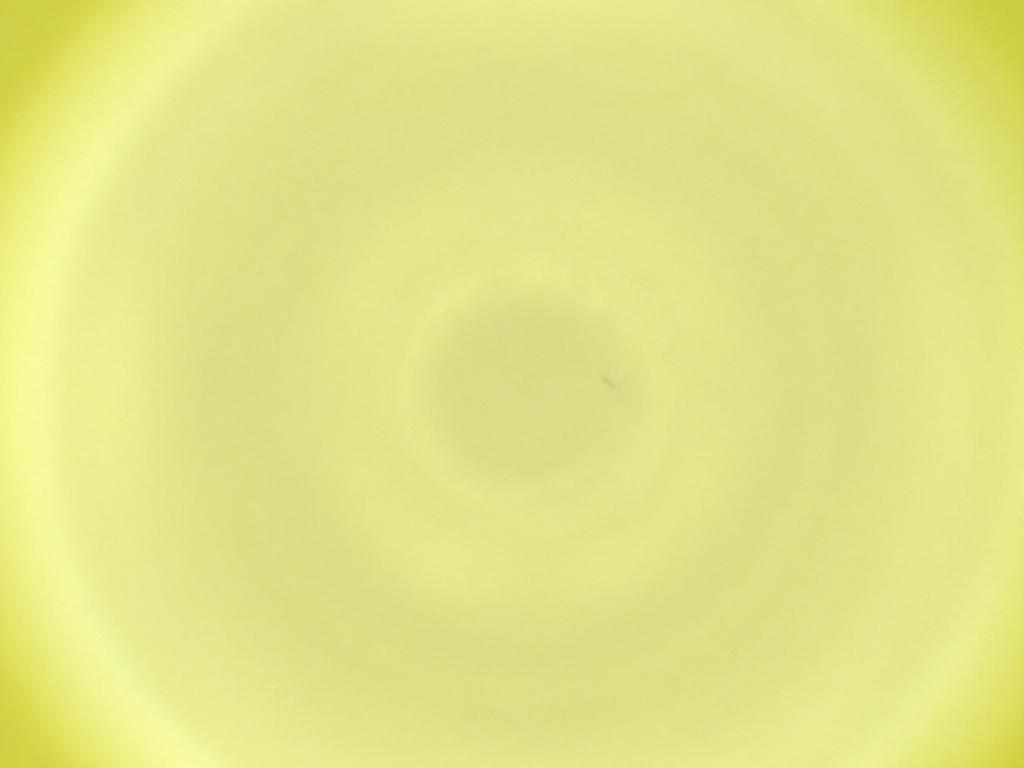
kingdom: Animalia
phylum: Arthropoda
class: Insecta
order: Diptera
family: Cecidomyiidae
